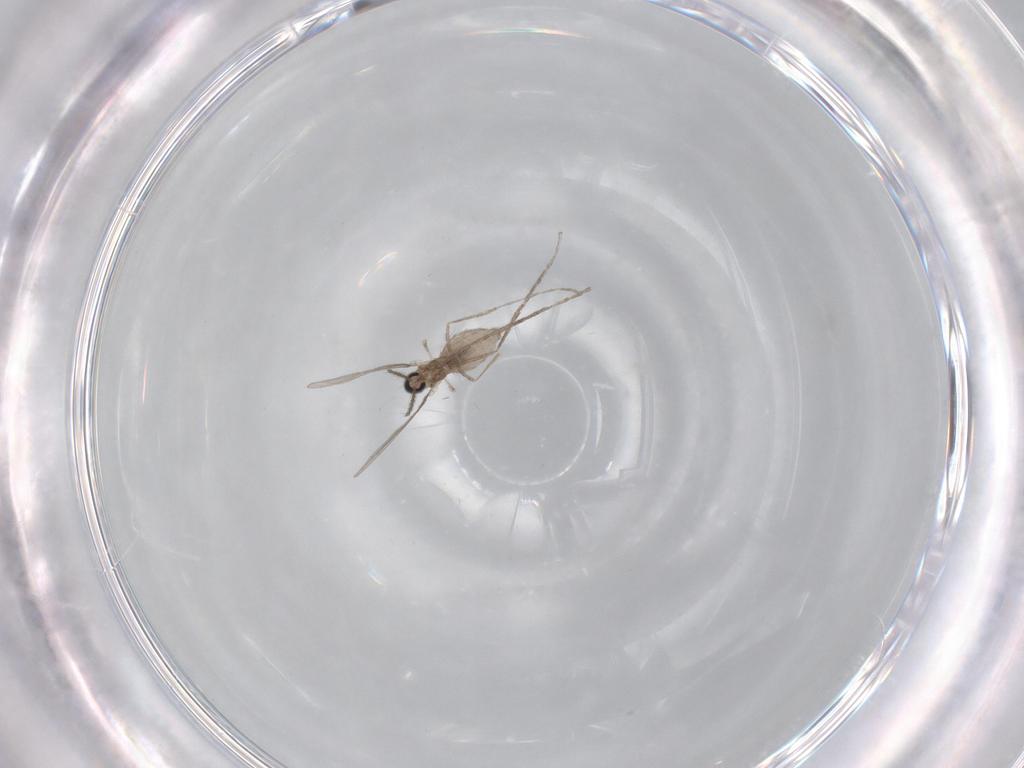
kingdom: Animalia
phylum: Arthropoda
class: Insecta
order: Diptera
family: Cecidomyiidae
